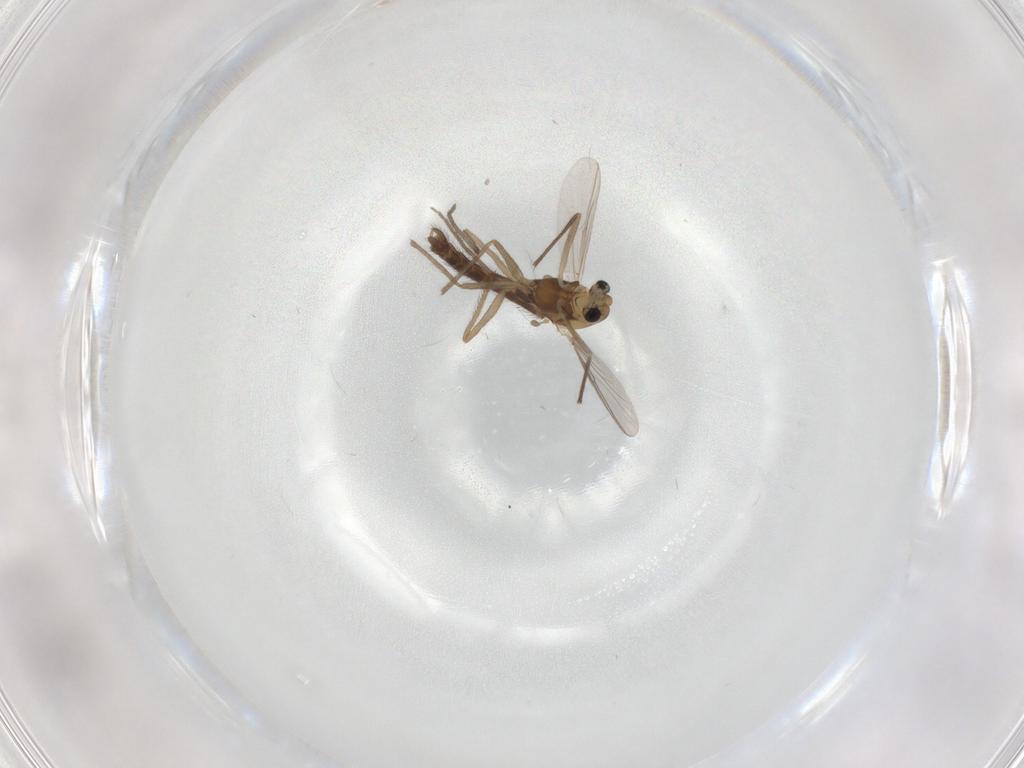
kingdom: Animalia
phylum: Arthropoda
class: Insecta
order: Diptera
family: Chironomidae
